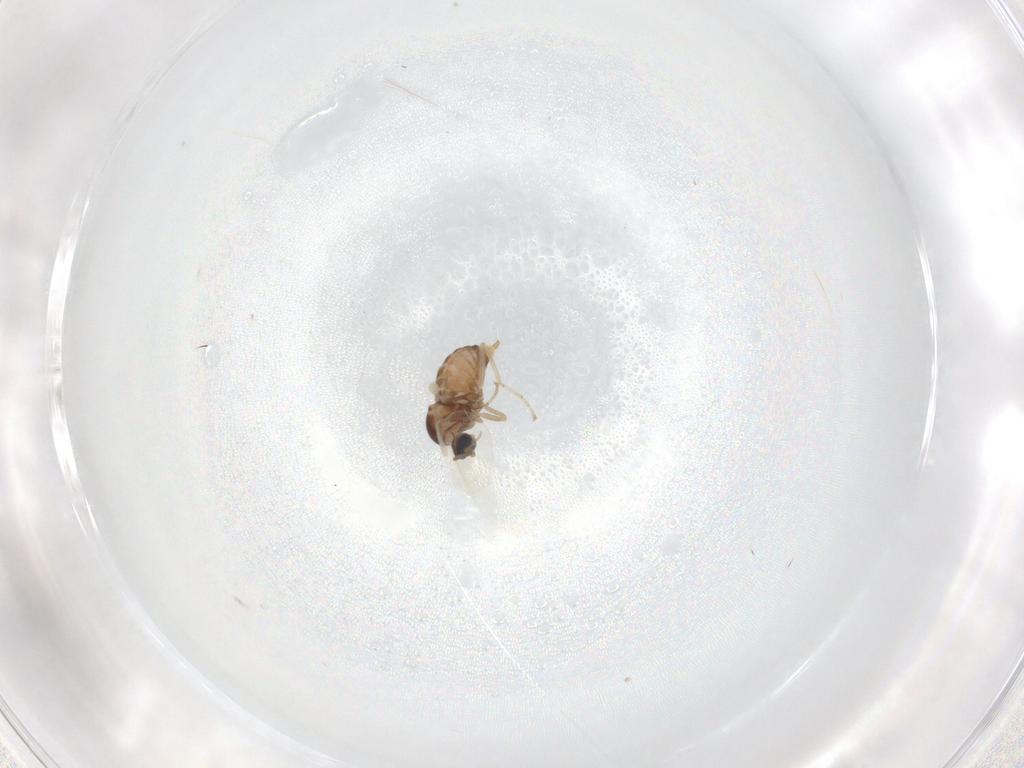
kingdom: Animalia
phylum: Arthropoda
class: Insecta
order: Diptera
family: Cecidomyiidae
